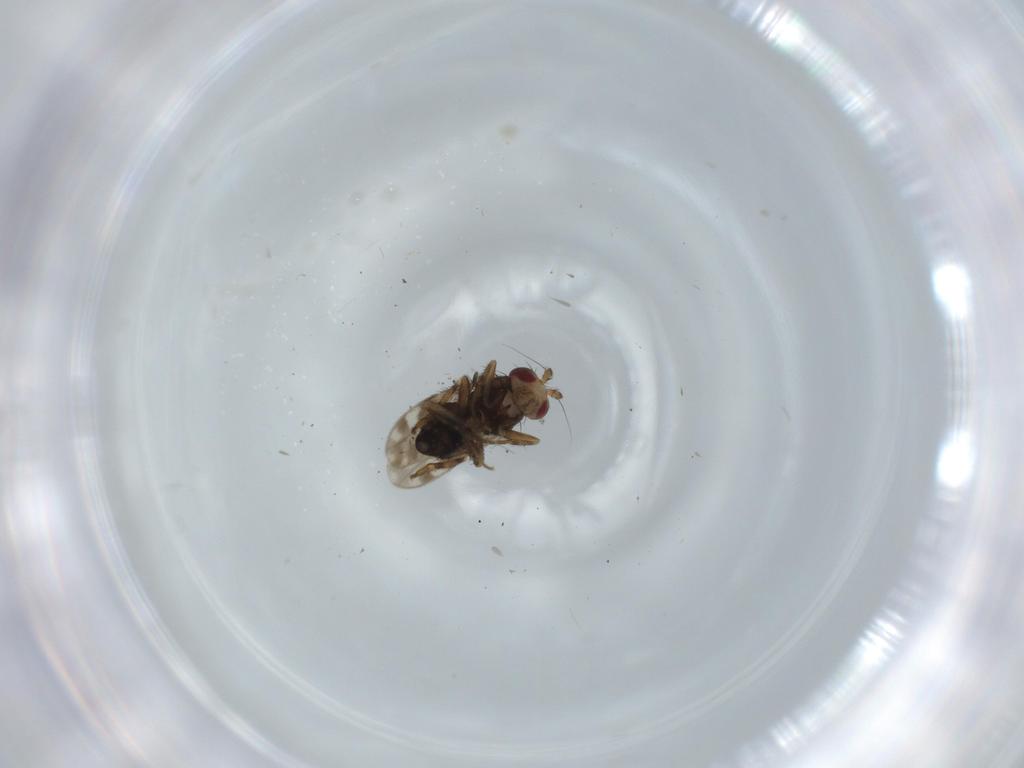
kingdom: Animalia
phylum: Arthropoda
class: Insecta
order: Diptera
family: Sphaeroceridae
